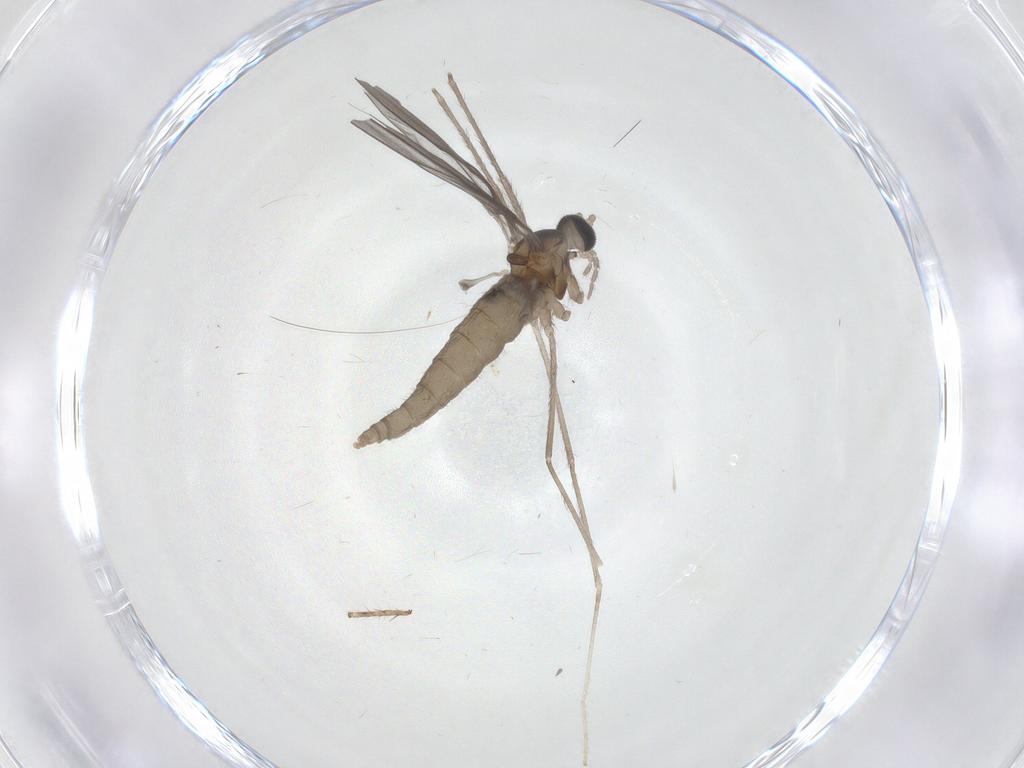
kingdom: Animalia
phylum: Arthropoda
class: Insecta
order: Diptera
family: Cecidomyiidae
